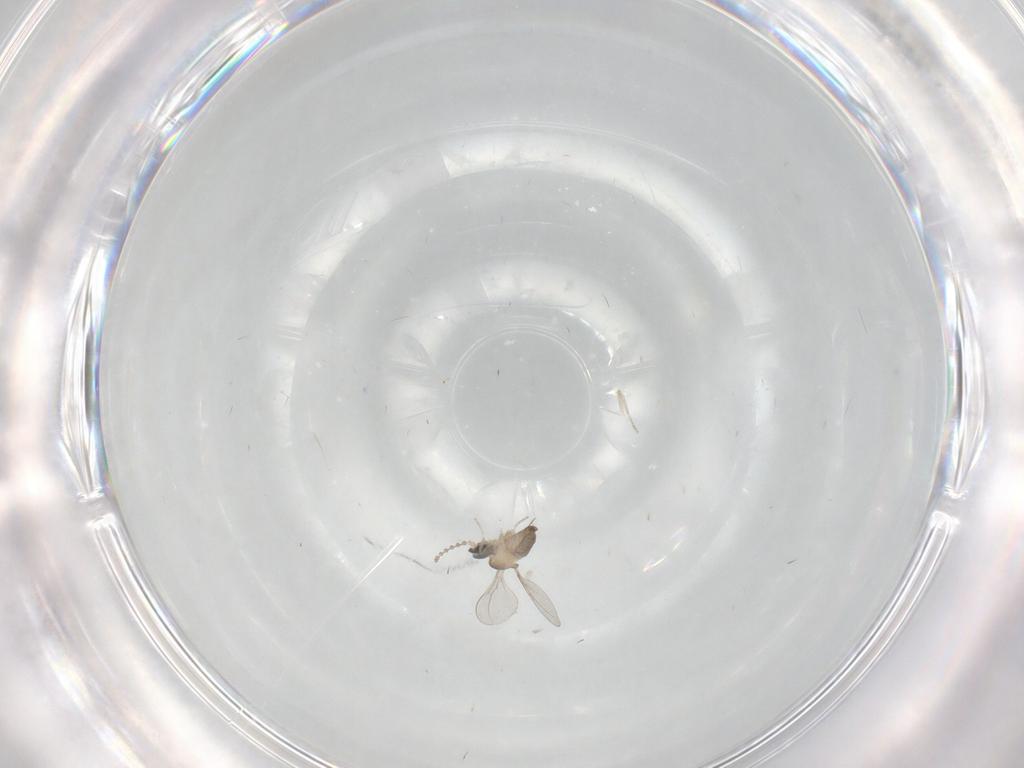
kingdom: Animalia
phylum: Arthropoda
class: Insecta
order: Diptera
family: Cecidomyiidae
